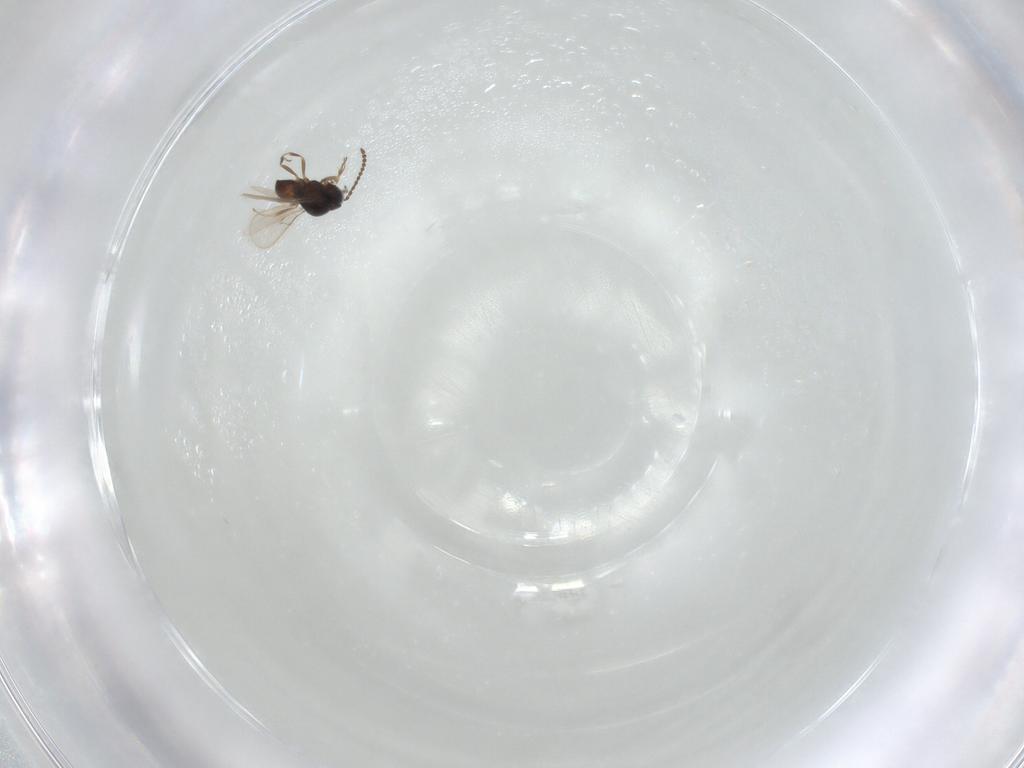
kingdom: Animalia
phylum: Arthropoda
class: Insecta
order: Hymenoptera
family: Scelionidae
